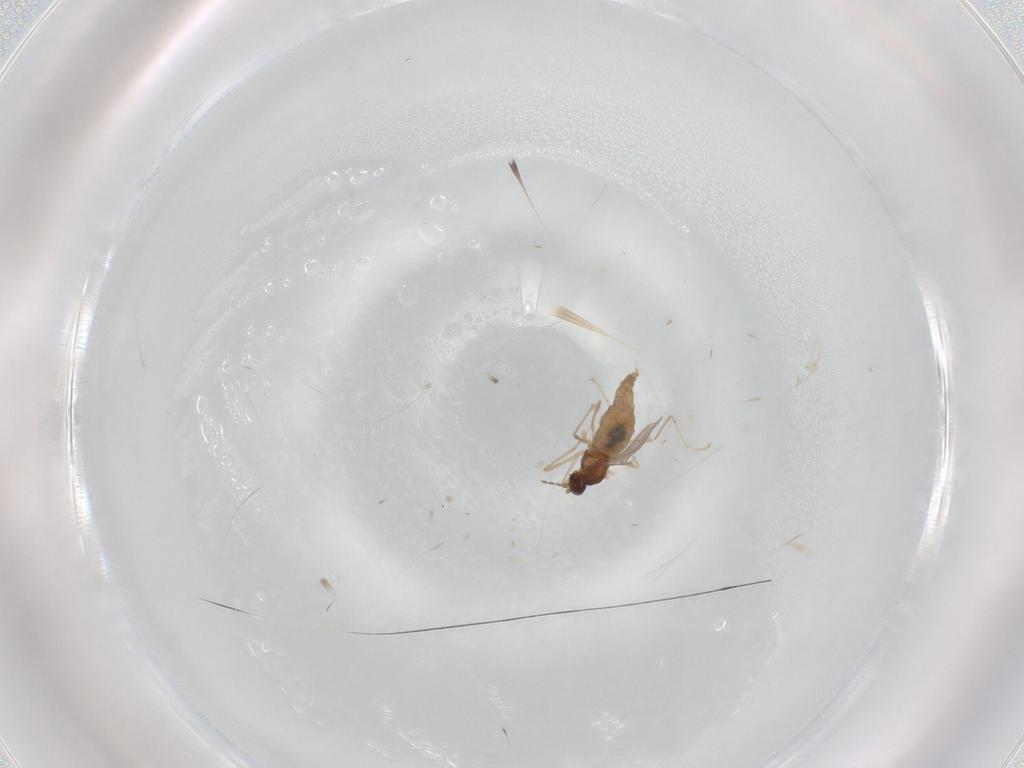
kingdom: Animalia
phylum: Arthropoda
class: Insecta
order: Diptera
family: Cecidomyiidae
